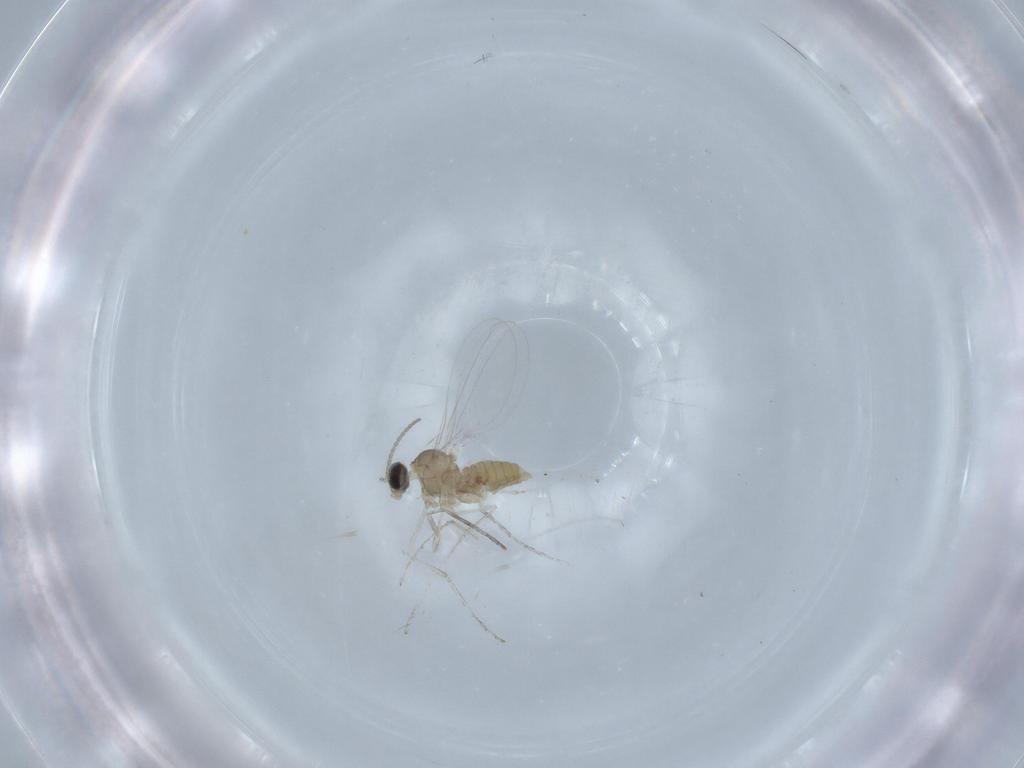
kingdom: Animalia
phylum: Arthropoda
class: Insecta
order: Diptera
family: Cecidomyiidae
